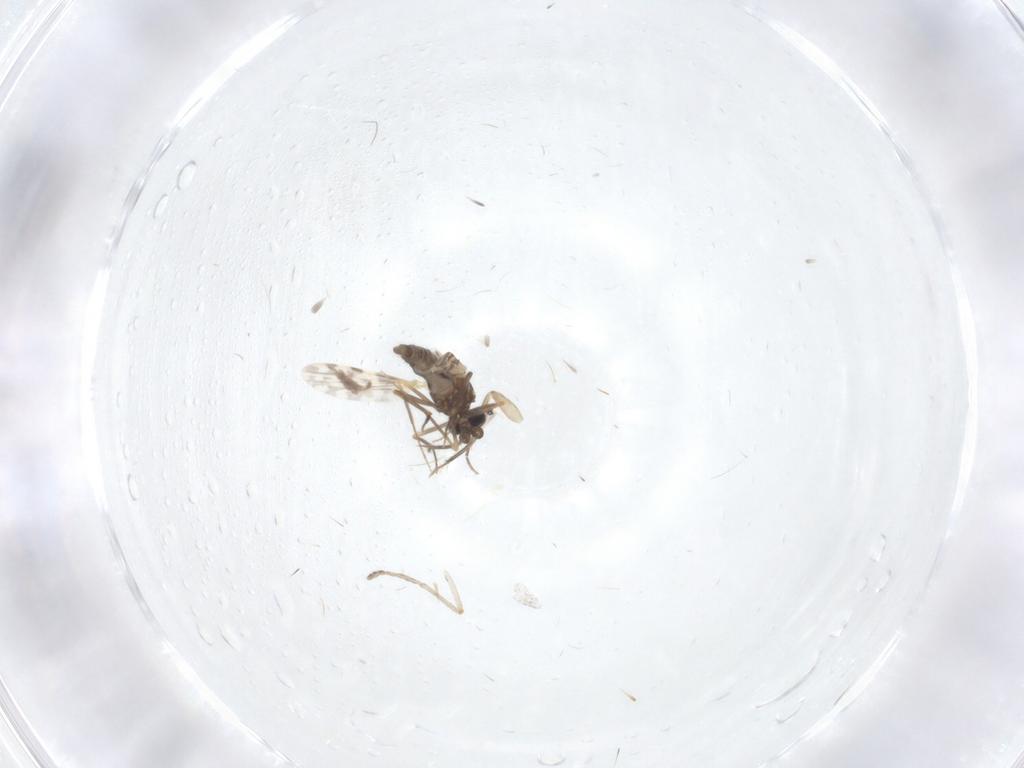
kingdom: Animalia
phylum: Arthropoda
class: Insecta
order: Diptera
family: Ceratopogonidae
